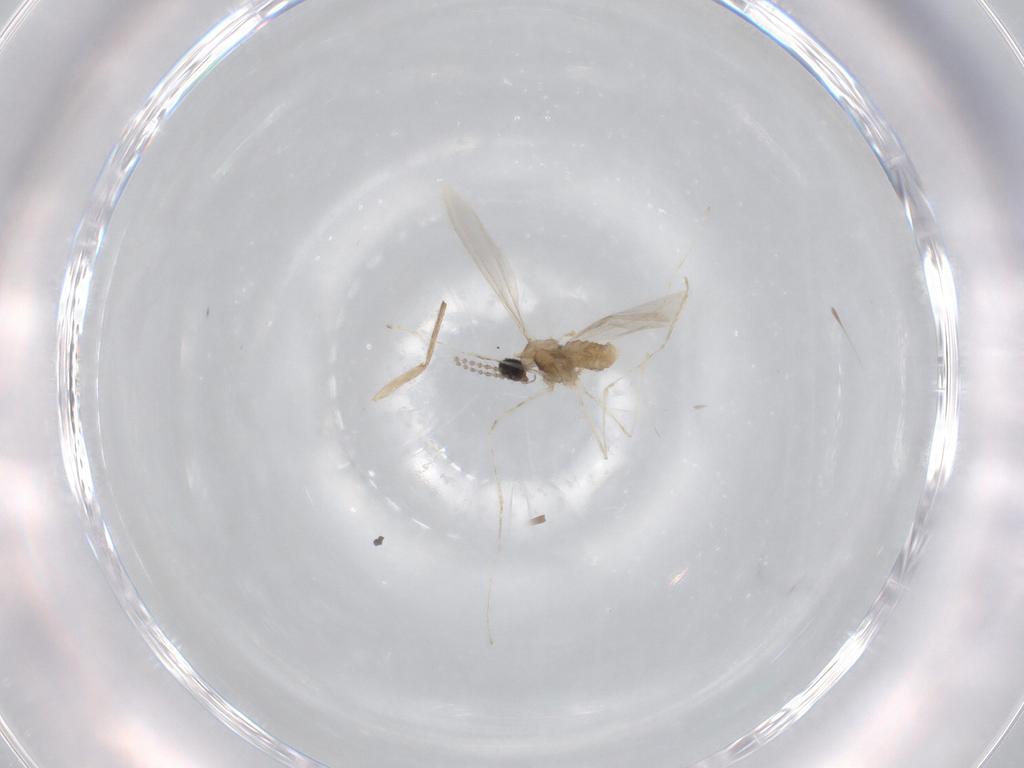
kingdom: Animalia
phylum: Arthropoda
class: Insecta
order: Diptera
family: Cecidomyiidae
